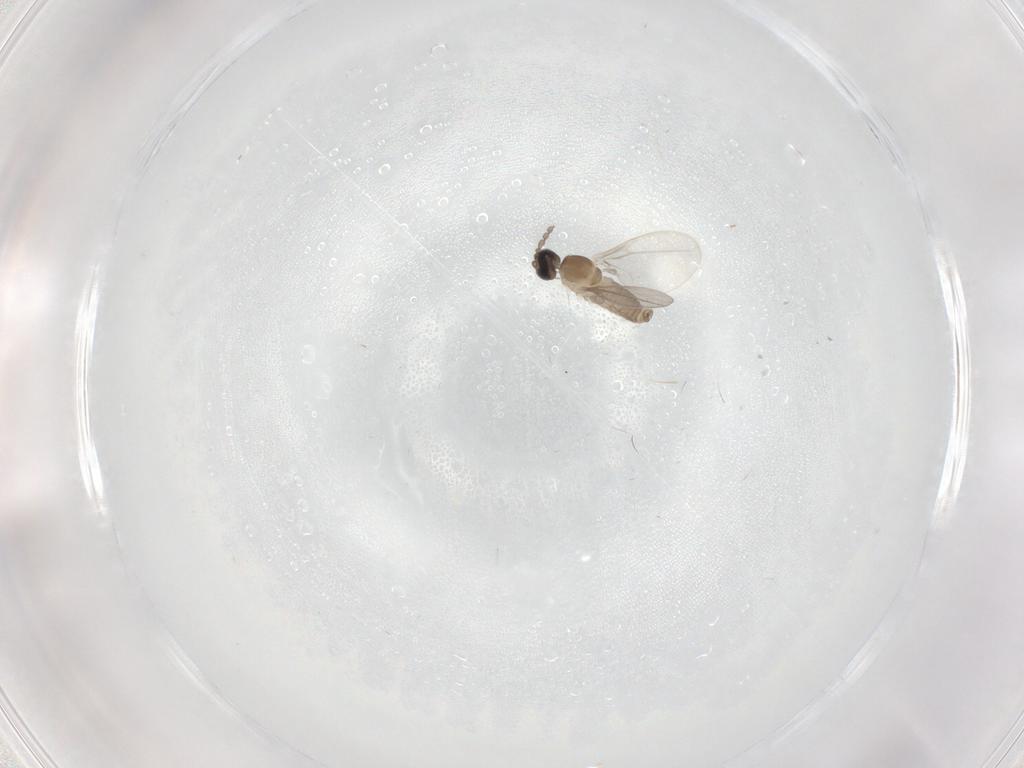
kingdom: Animalia
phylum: Arthropoda
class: Insecta
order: Diptera
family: Cecidomyiidae
